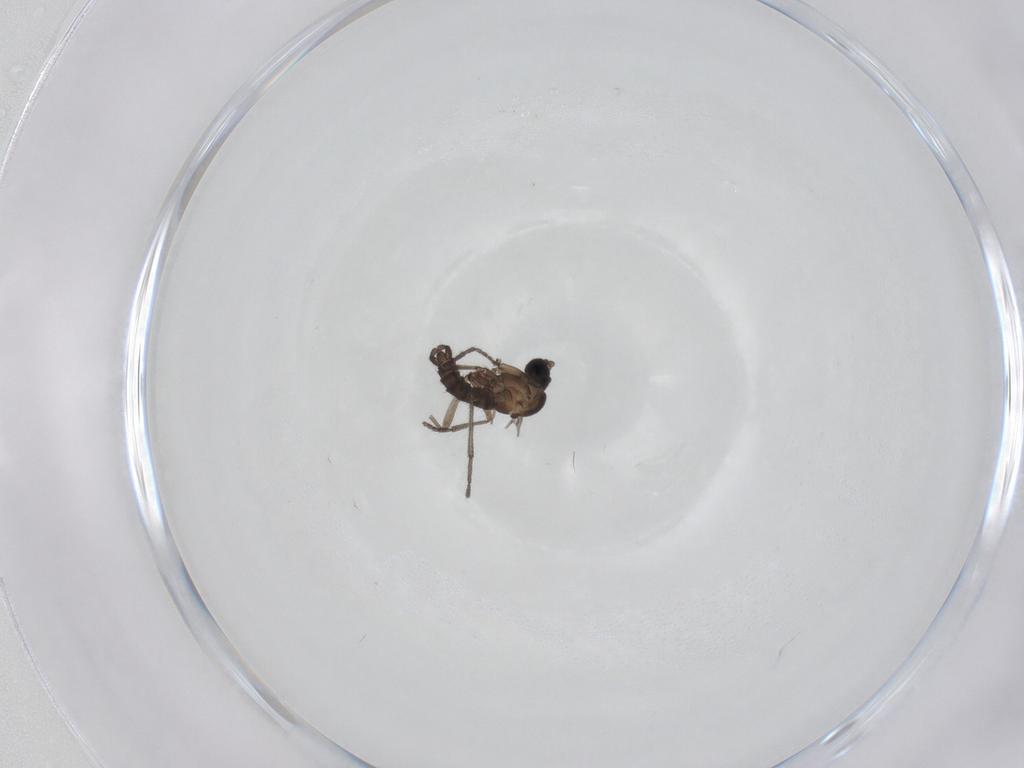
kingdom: Animalia
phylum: Arthropoda
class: Insecta
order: Diptera
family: Sciaridae
